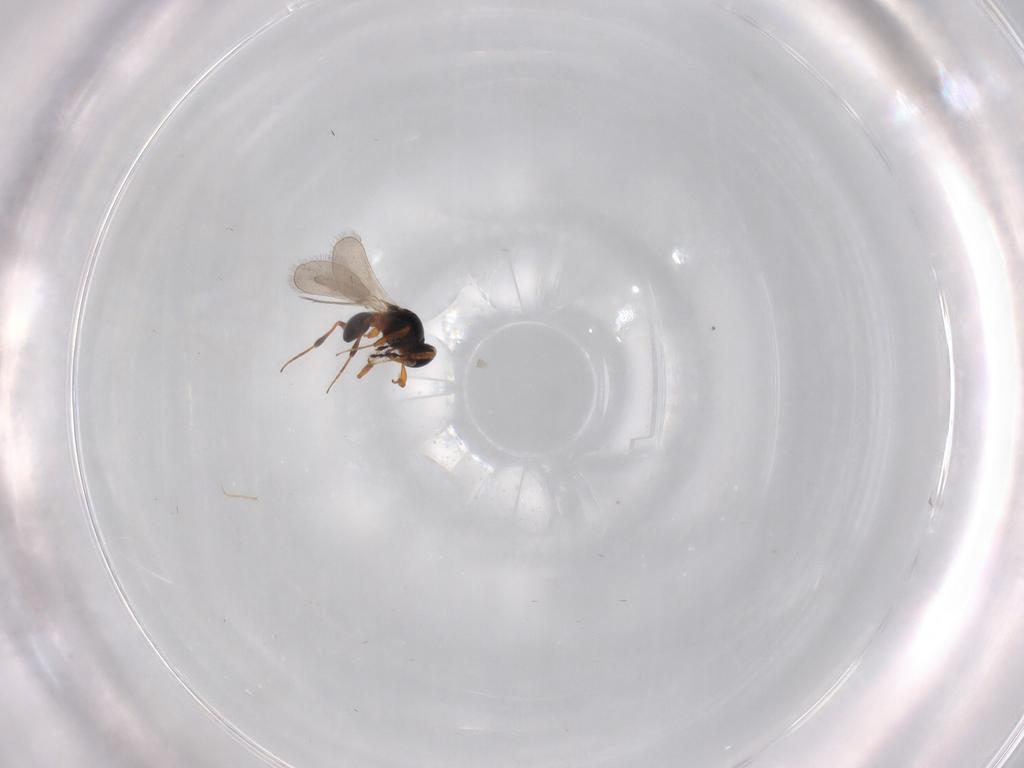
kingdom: Animalia
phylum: Arthropoda
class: Insecta
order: Hymenoptera
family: Platygastridae
